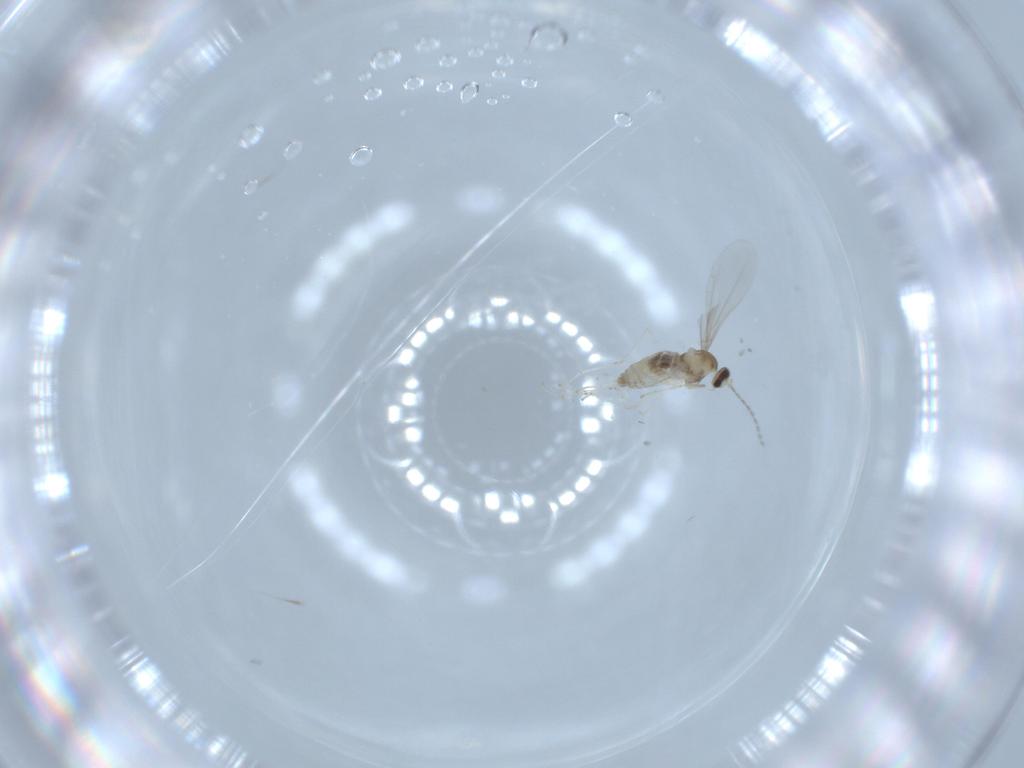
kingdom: Animalia
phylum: Arthropoda
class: Insecta
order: Diptera
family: Cecidomyiidae
